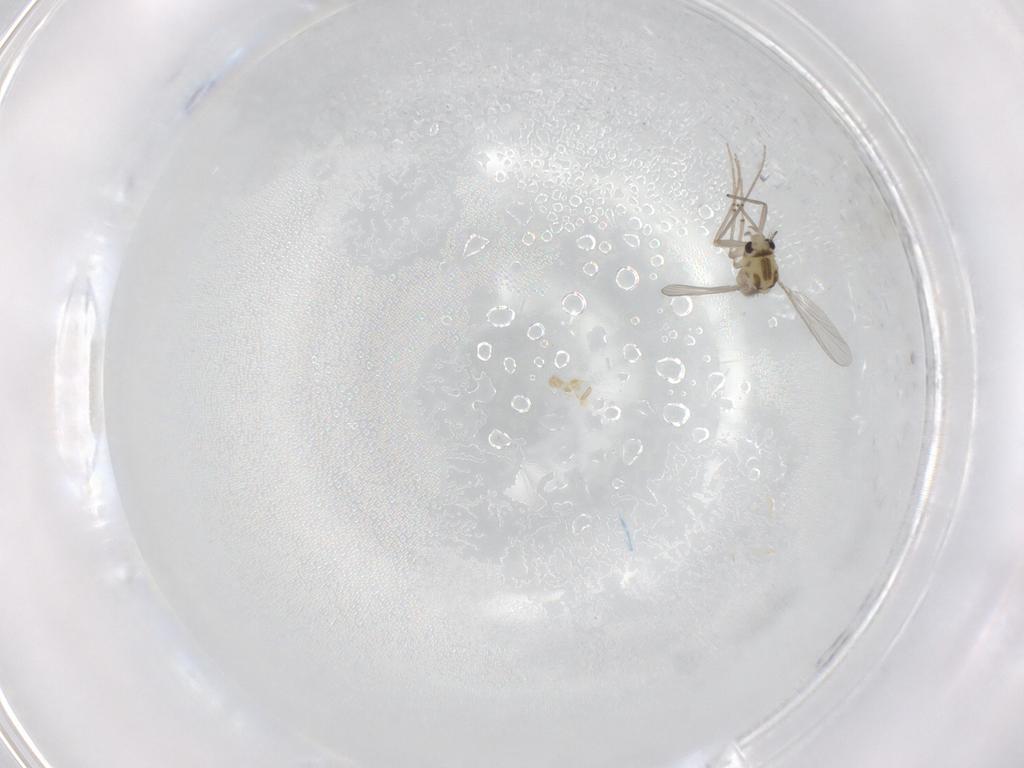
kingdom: Animalia
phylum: Arthropoda
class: Insecta
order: Diptera
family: Chironomidae
